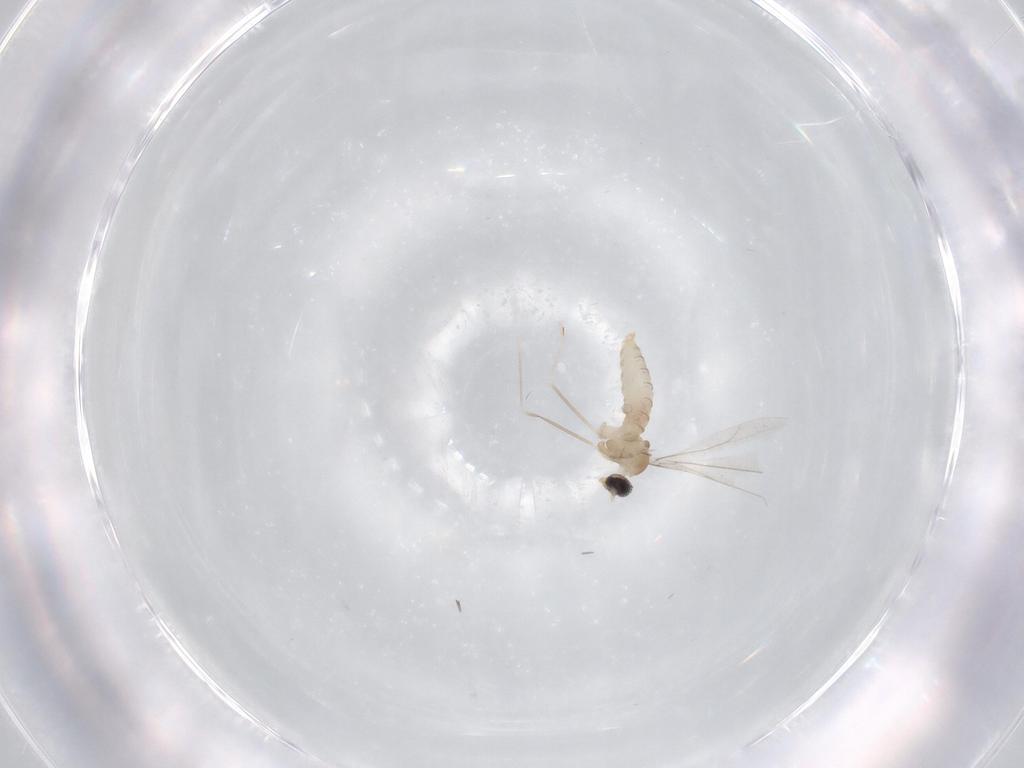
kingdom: Animalia
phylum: Arthropoda
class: Insecta
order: Diptera
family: Cecidomyiidae
